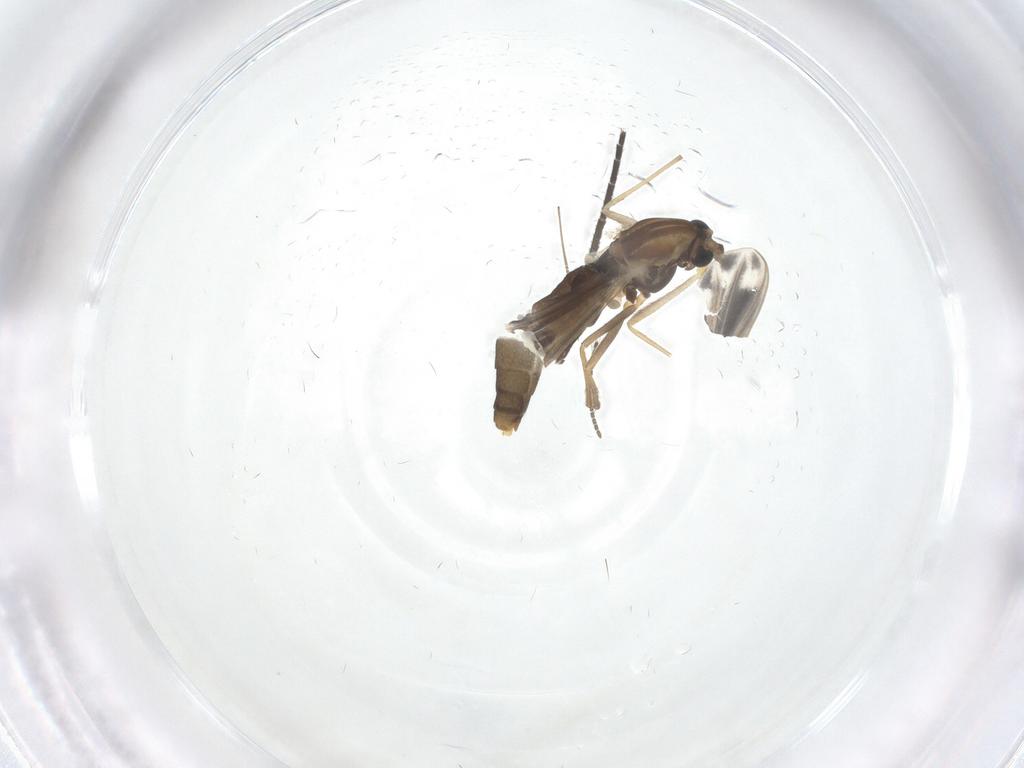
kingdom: Animalia
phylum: Arthropoda
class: Insecta
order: Diptera
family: Chironomidae
